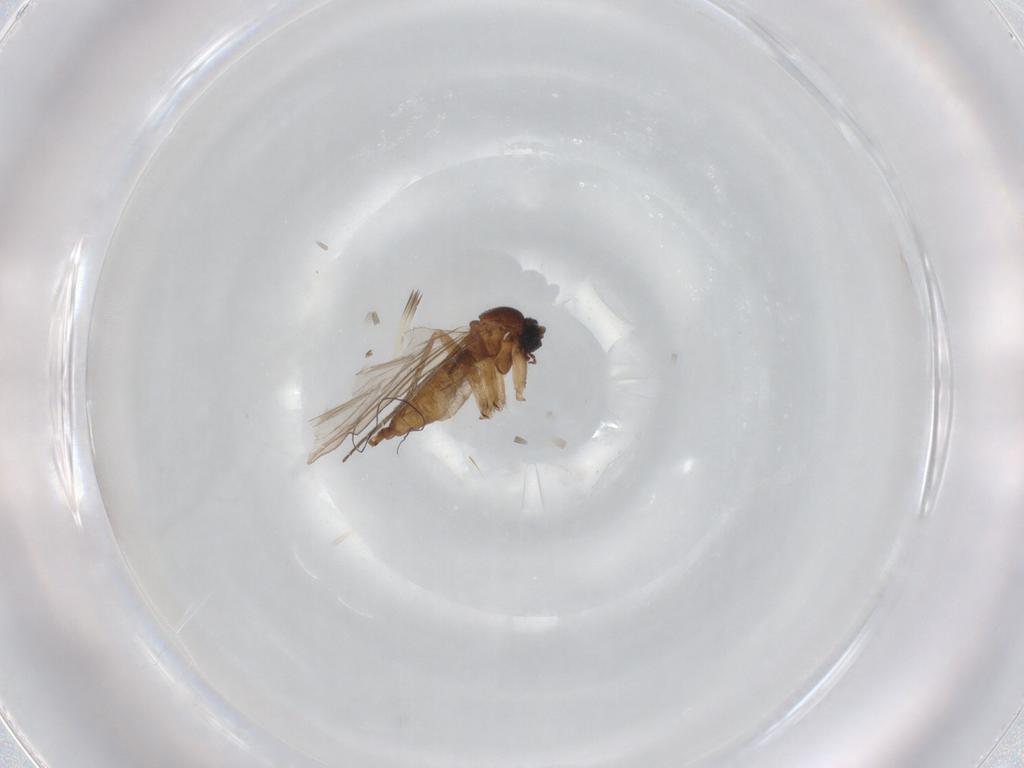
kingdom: Animalia
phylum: Arthropoda
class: Insecta
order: Diptera
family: Sciaridae
